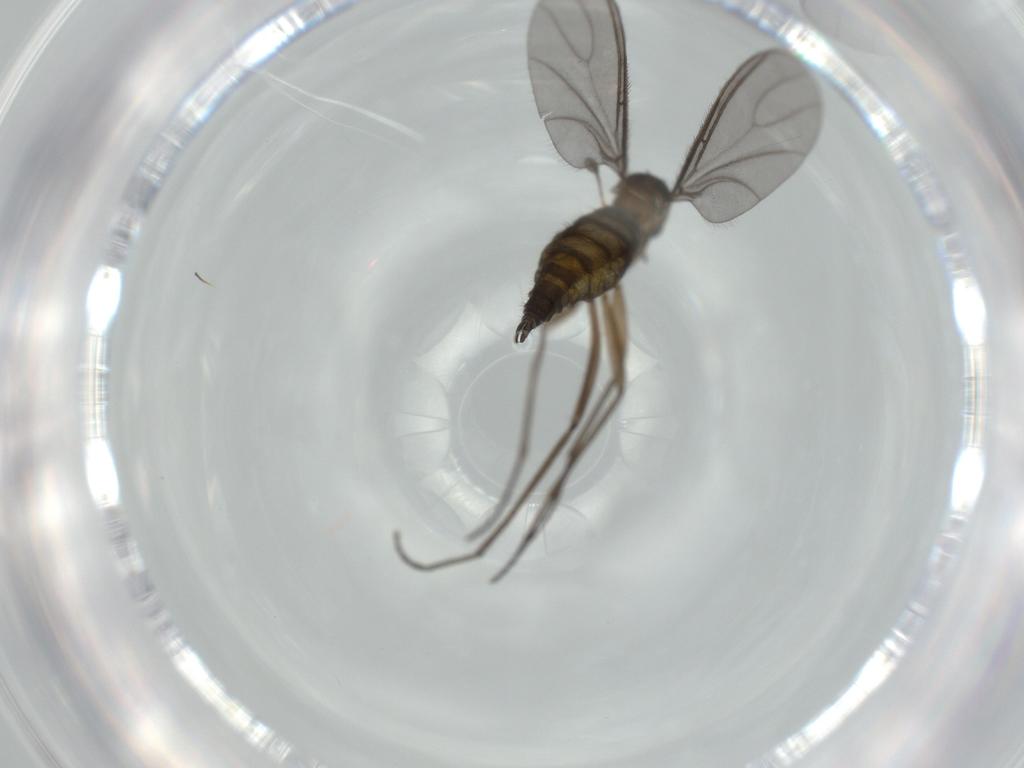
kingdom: Animalia
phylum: Arthropoda
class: Insecta
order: Diptera
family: Sciaridae
